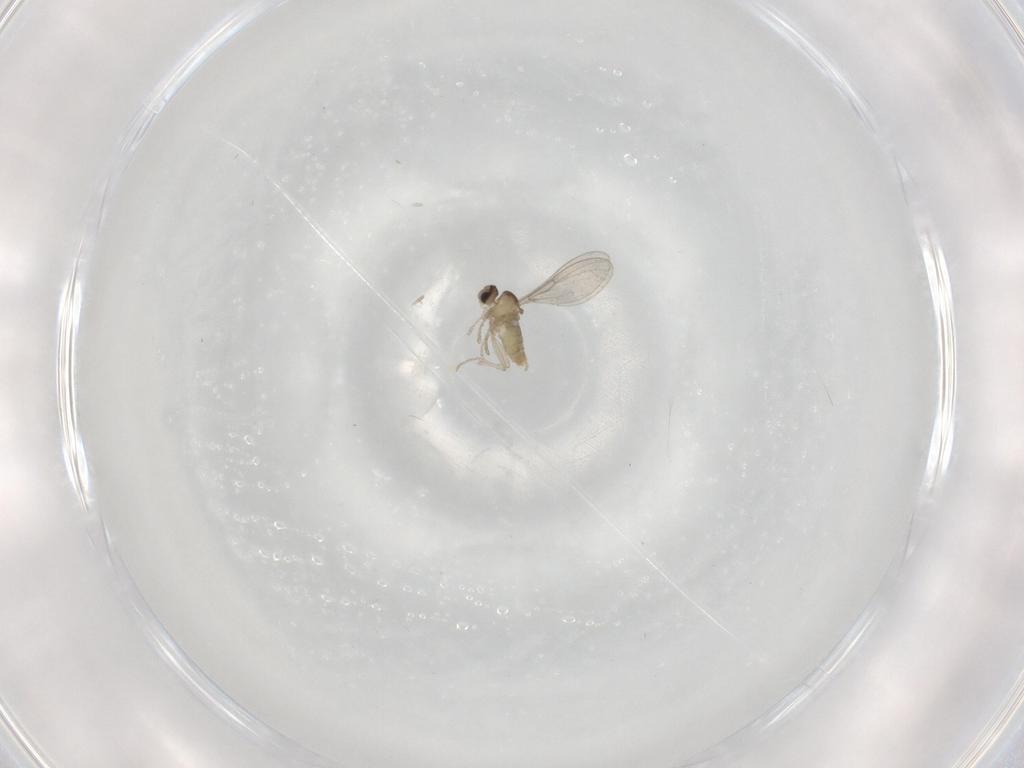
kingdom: Animalia
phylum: Arthropoda
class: Insecta
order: Diptera
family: Cecidomyiidae
